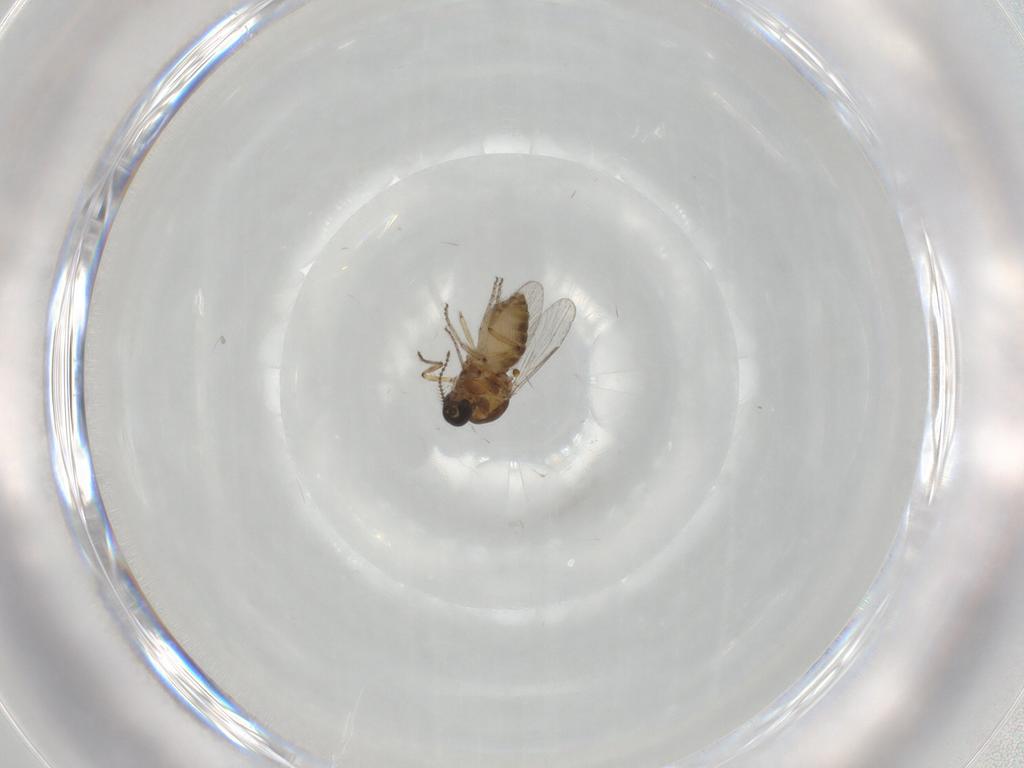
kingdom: Animalia
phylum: Arthropoda
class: Insecta
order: Diptera
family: Ceratopogonidae
